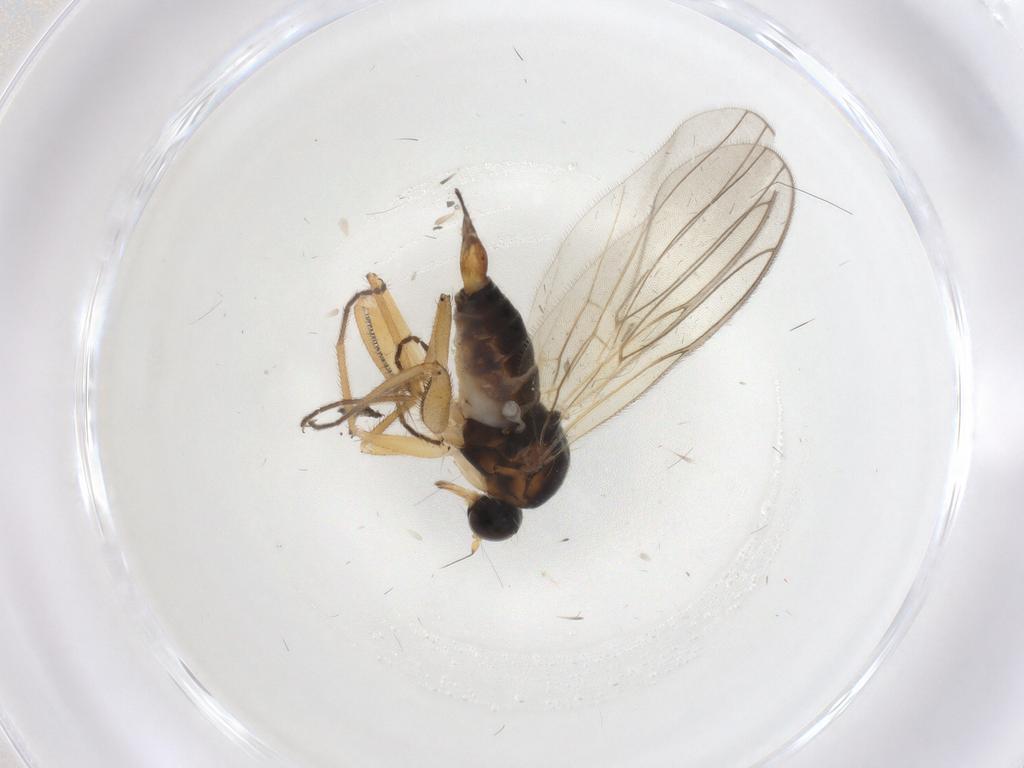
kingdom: Animalia
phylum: Arthropoda
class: Insecta
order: Diptera
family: Hybotidae
